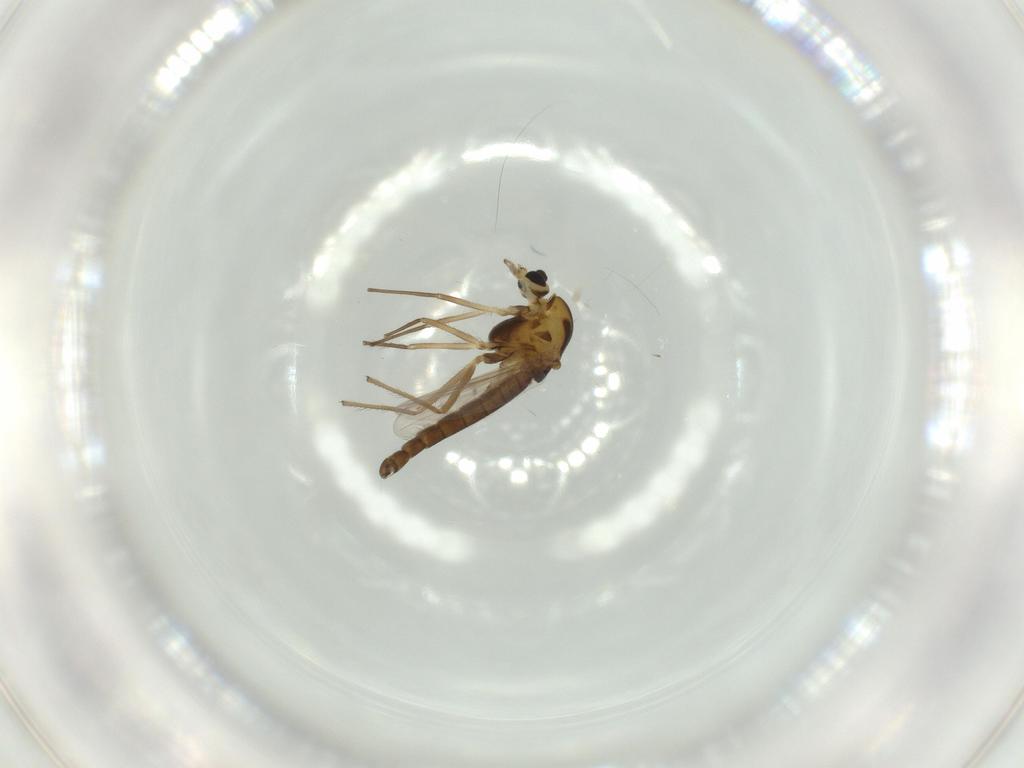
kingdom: Animalia
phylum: Arthropoda
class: Insecta
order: Diptera
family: Chironomidae
